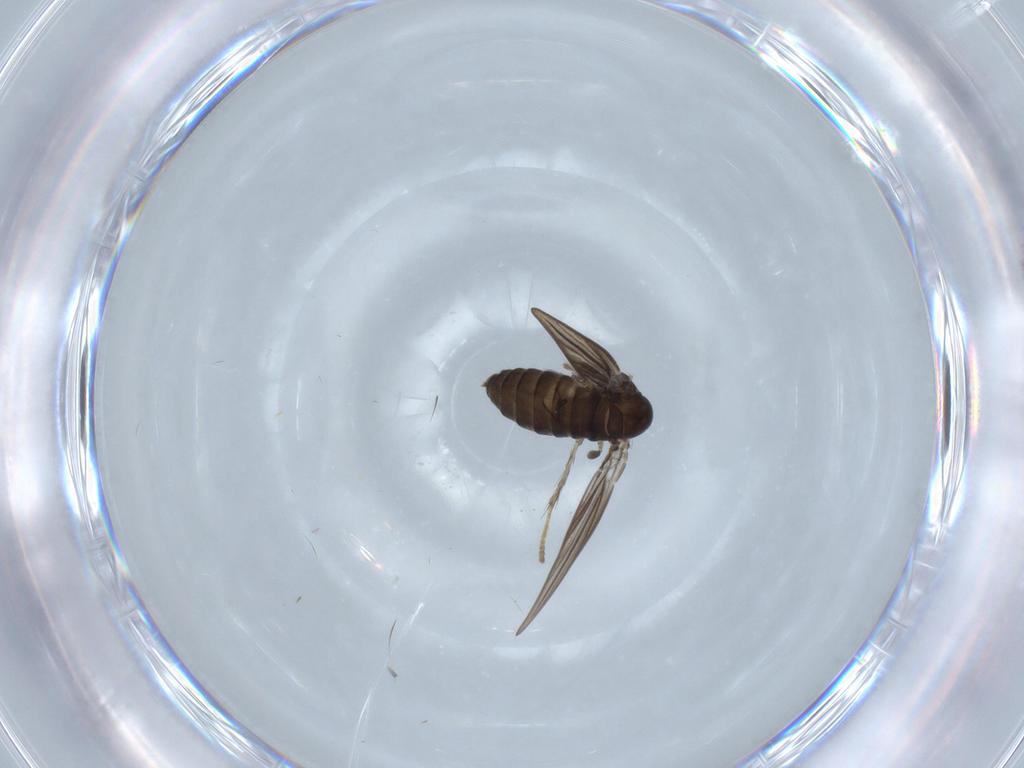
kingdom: Animalia
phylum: Arthropoda
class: Insecta
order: Diptera
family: Psychodidae
